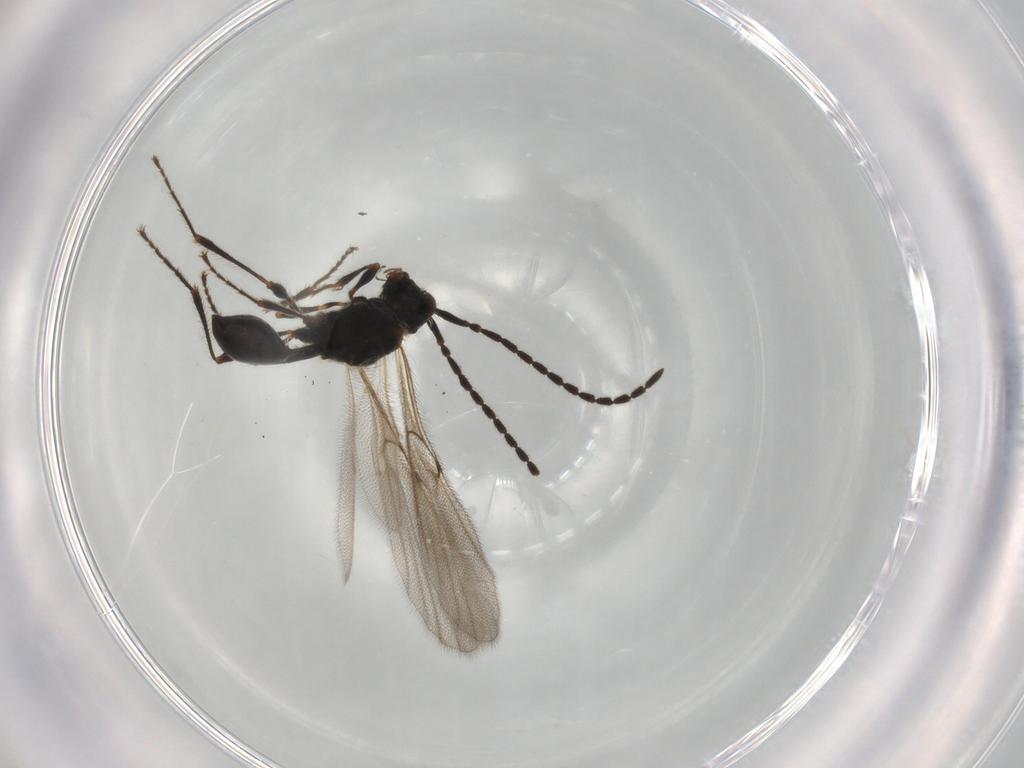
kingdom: Animalia
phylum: Arthropoda
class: Insecta
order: Hymenoptera
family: Diapriidae
